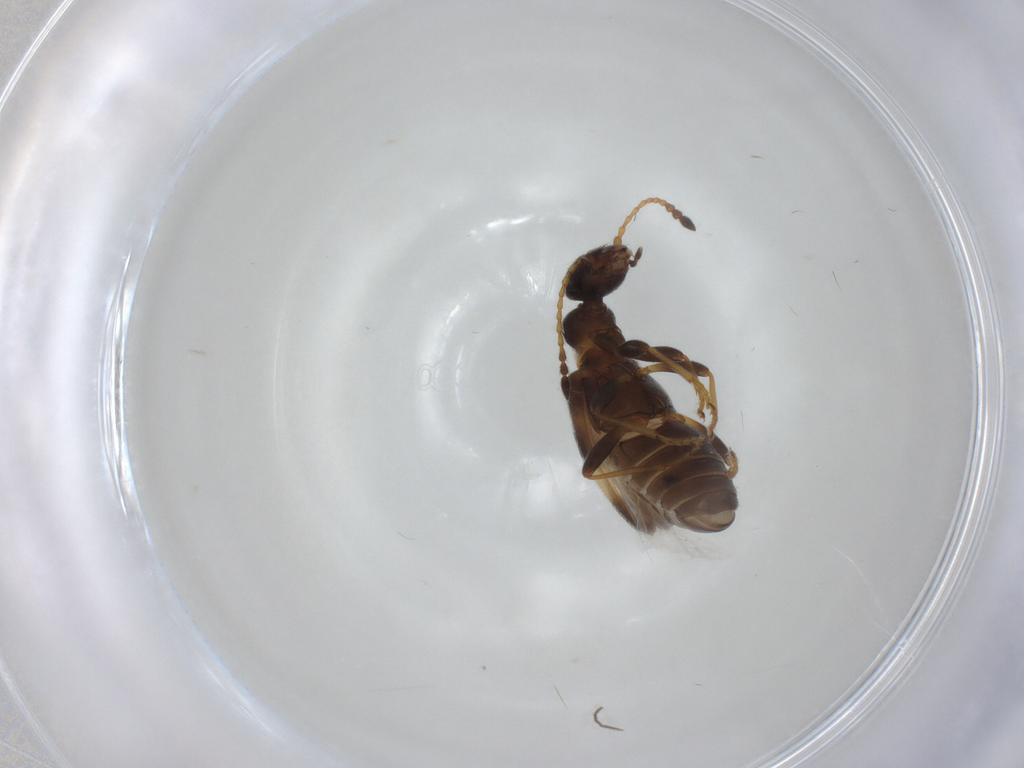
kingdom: Animalia
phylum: Arthropoda
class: Insecta
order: Coleoptera
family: Anthicidae
